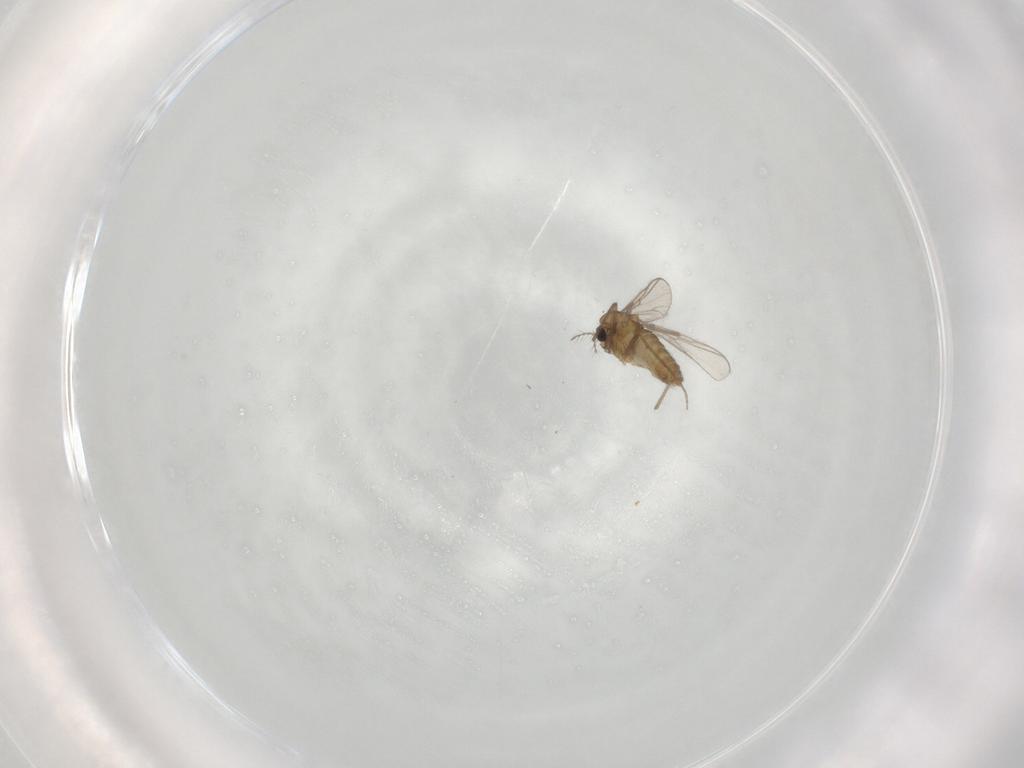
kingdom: Animalia
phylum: Arthropoda
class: Insecta
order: Diptera
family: Chironomidae
